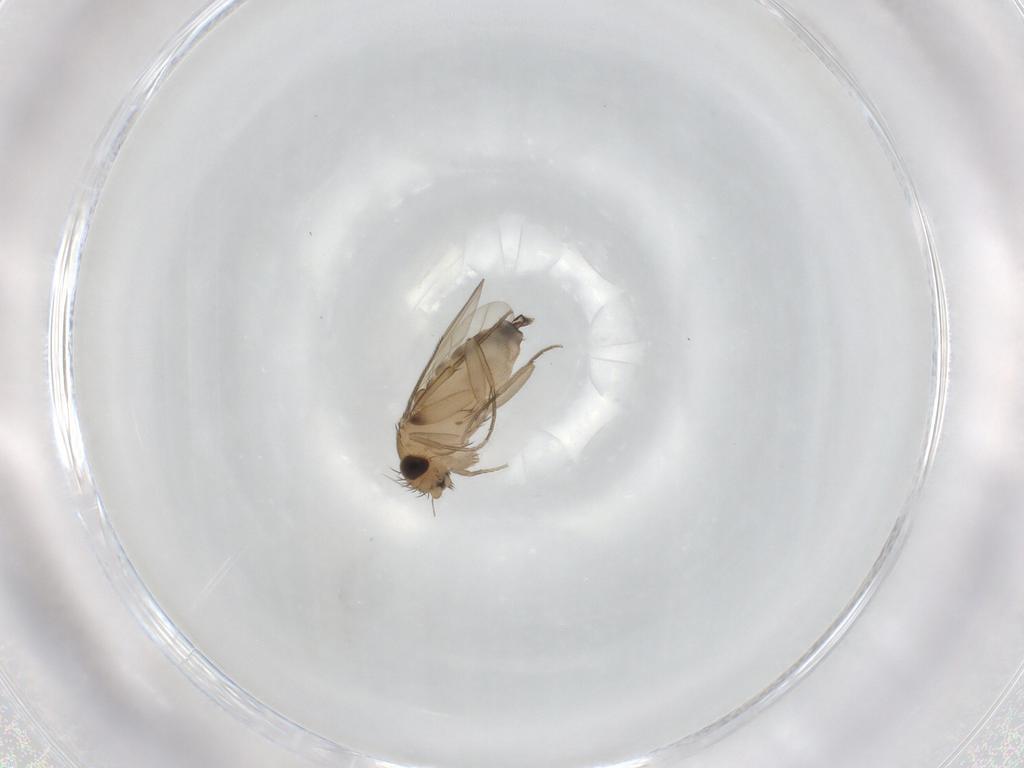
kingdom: Animalia
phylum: Arthropoda
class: Insecta
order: Diptera
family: Phoridae
